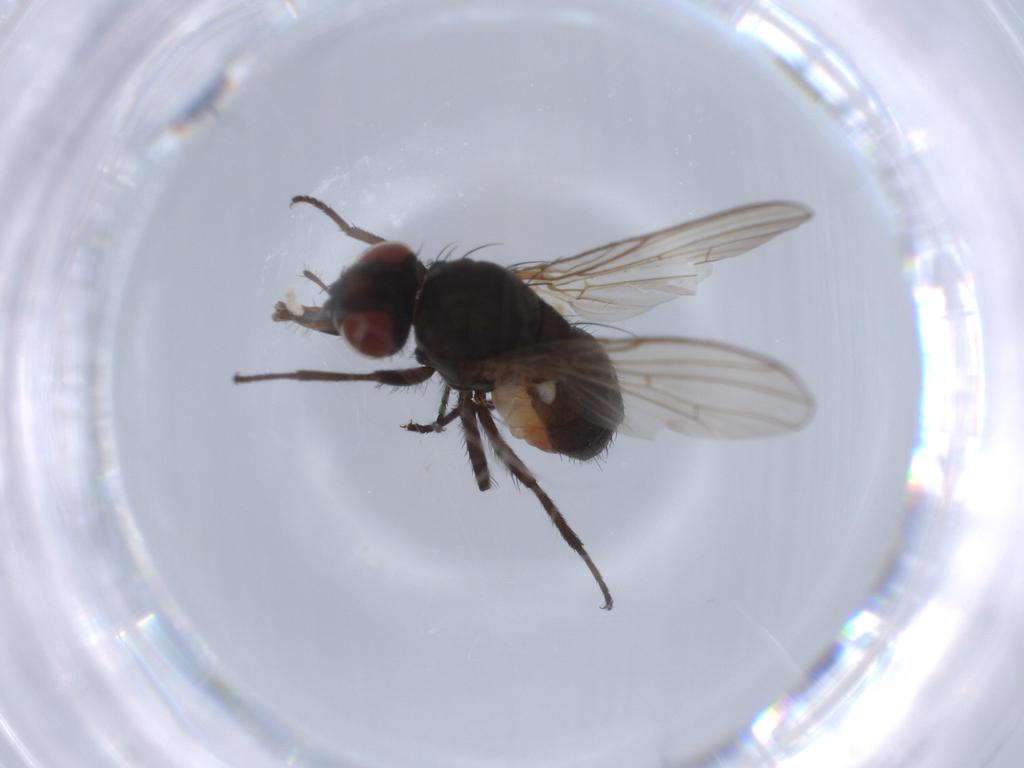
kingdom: Animalia
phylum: Arthropoda
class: Insecta
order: Diptera
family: Anthomyiidae
